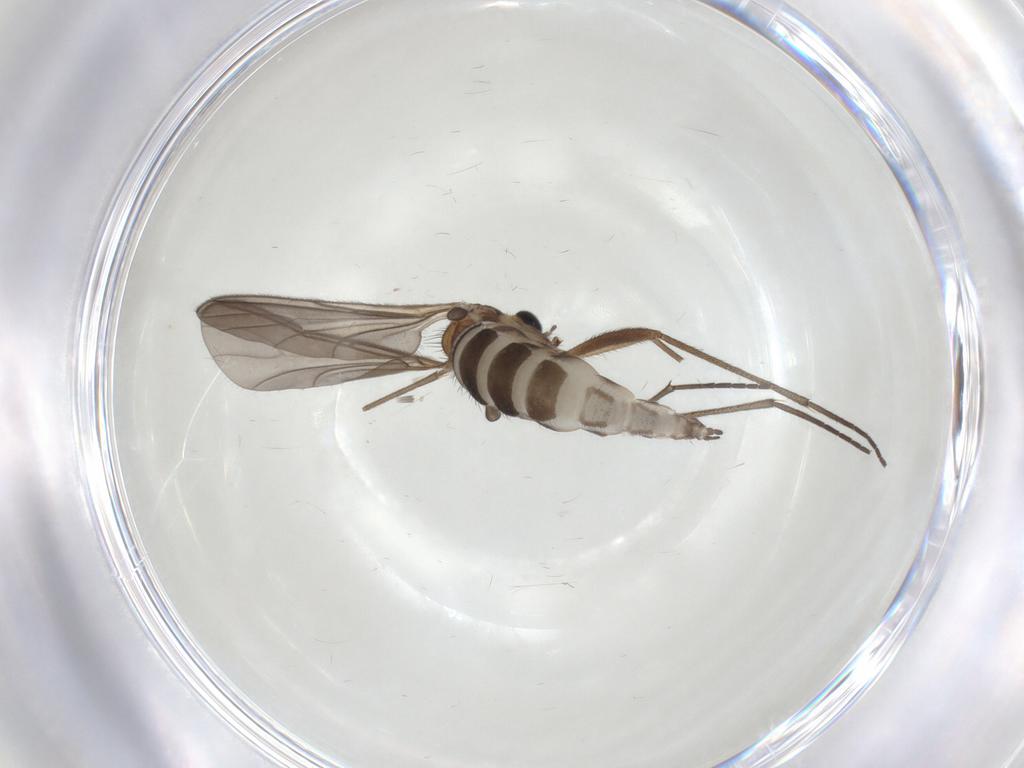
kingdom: Animalia
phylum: Arthropoda
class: Insecta
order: Diptera
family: Sciaridae
